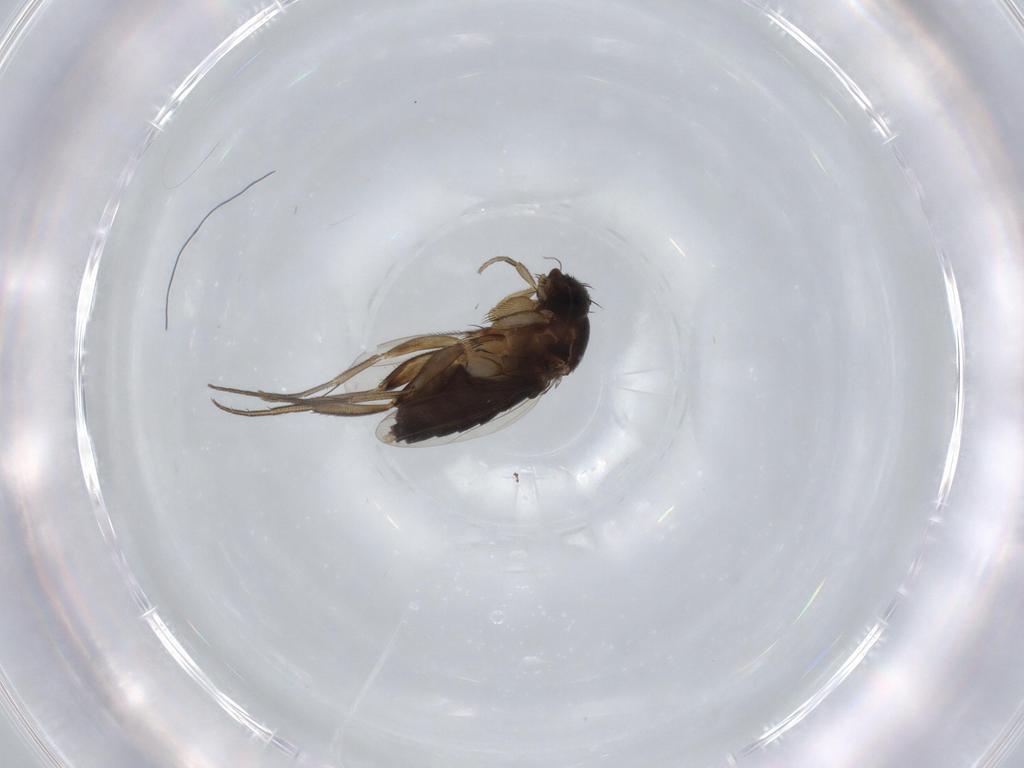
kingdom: Animalia
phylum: Arthropoda
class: Insecta
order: Diptera
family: Phoridae
